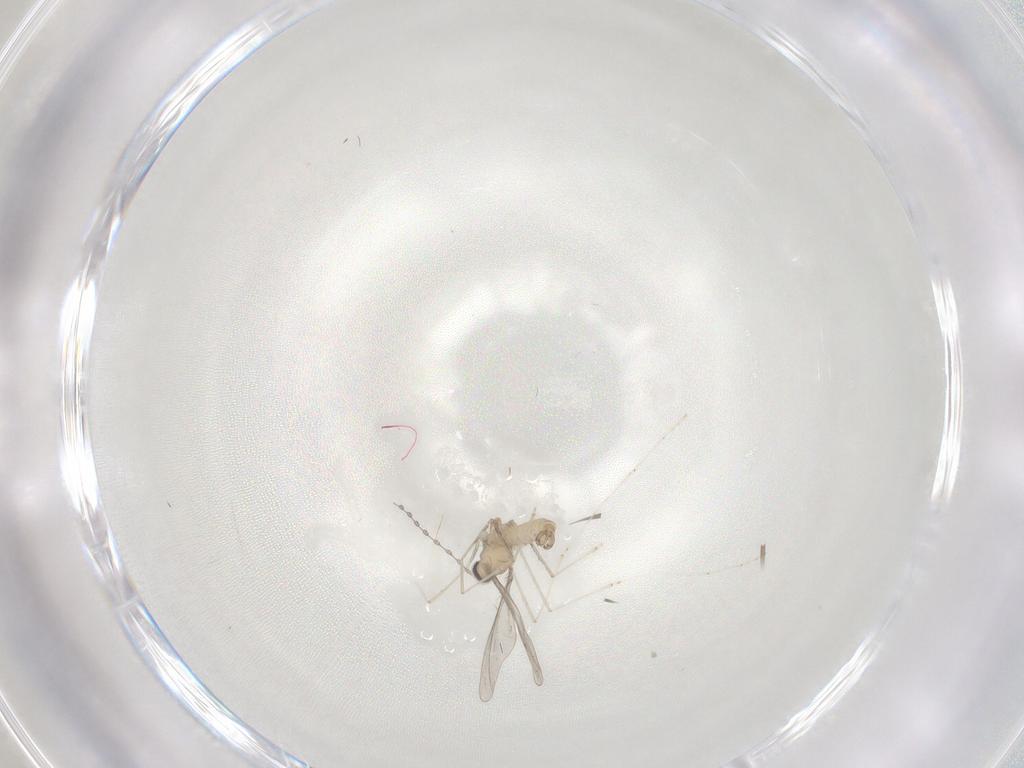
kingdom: Animalia
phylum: Arthropoda
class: Insecta
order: Diptera
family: Cecidomyiidae
